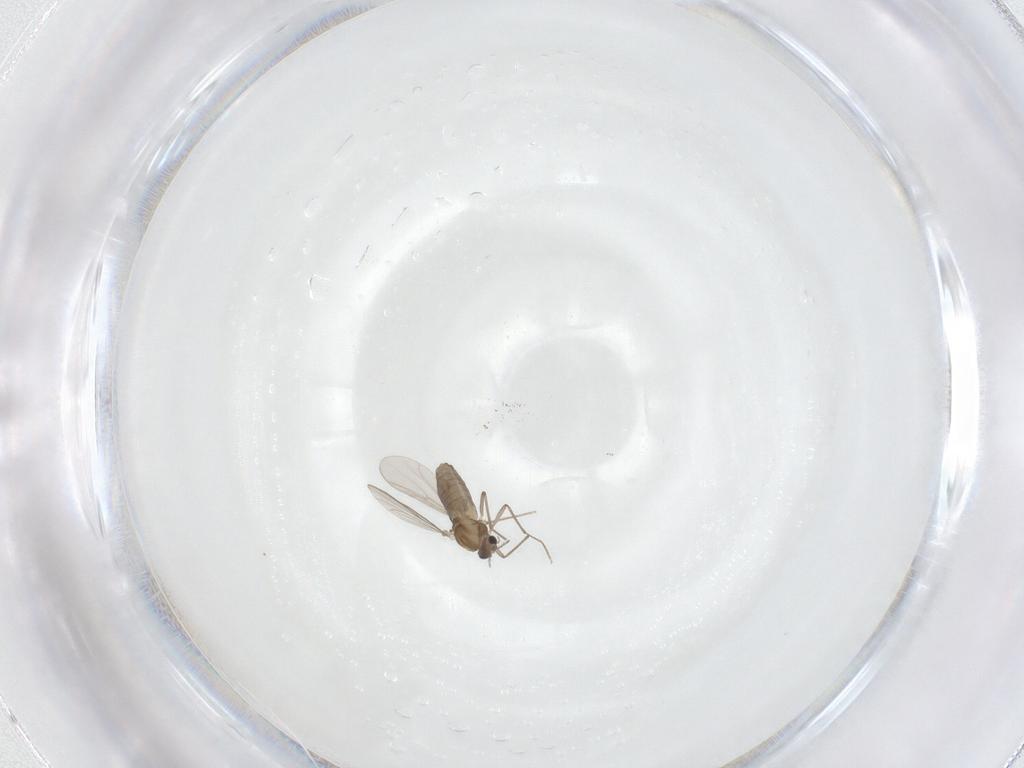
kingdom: Animalia
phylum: Arthropoda
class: Insecta
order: Diptera
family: Chironomidae
